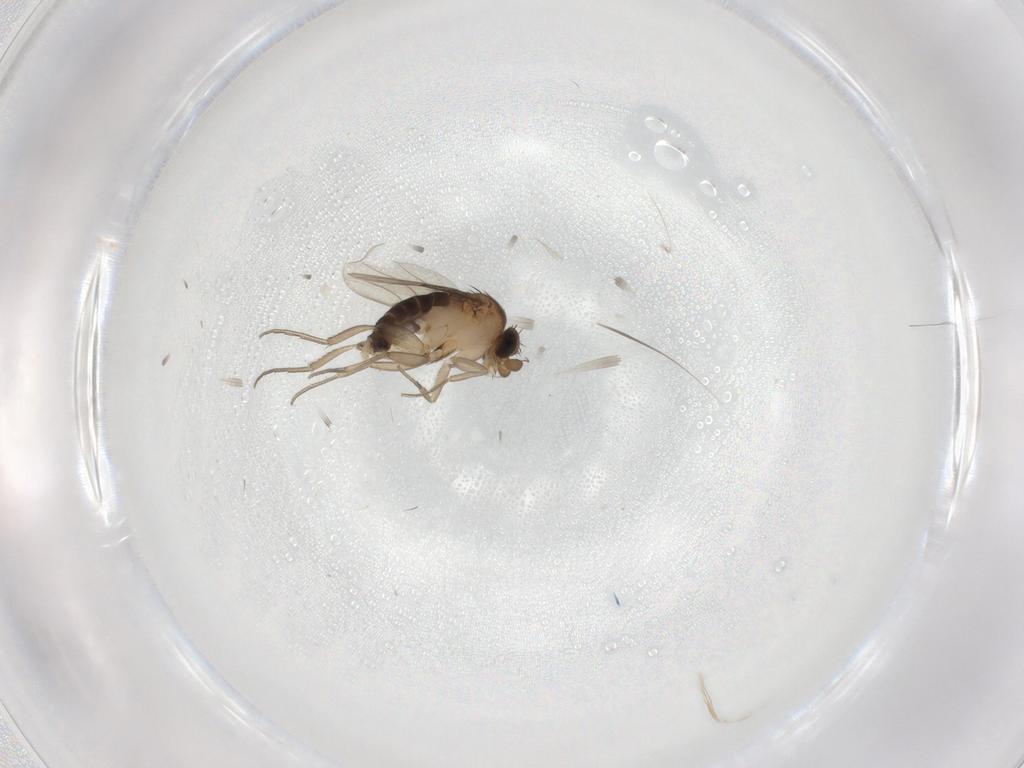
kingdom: Animalia
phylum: Arthropoda
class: Insecta
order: Diptera
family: Phoridae
